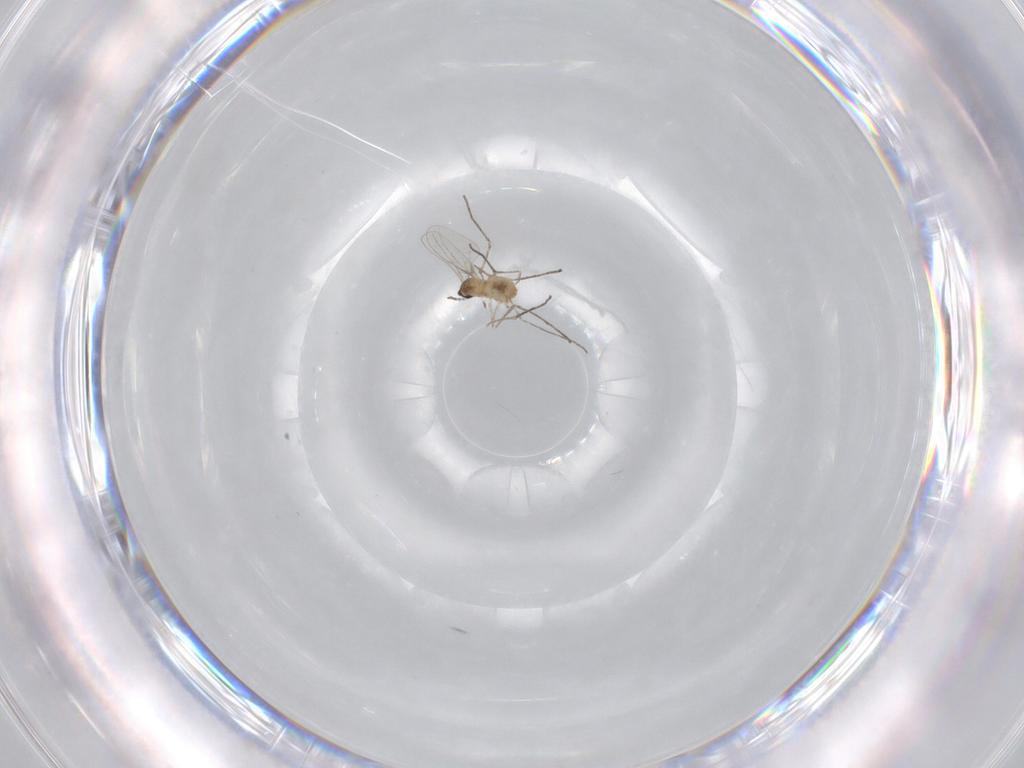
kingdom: Animalia
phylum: Arthropoda
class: Insecta
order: Diptera
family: Cecidomyiidae
